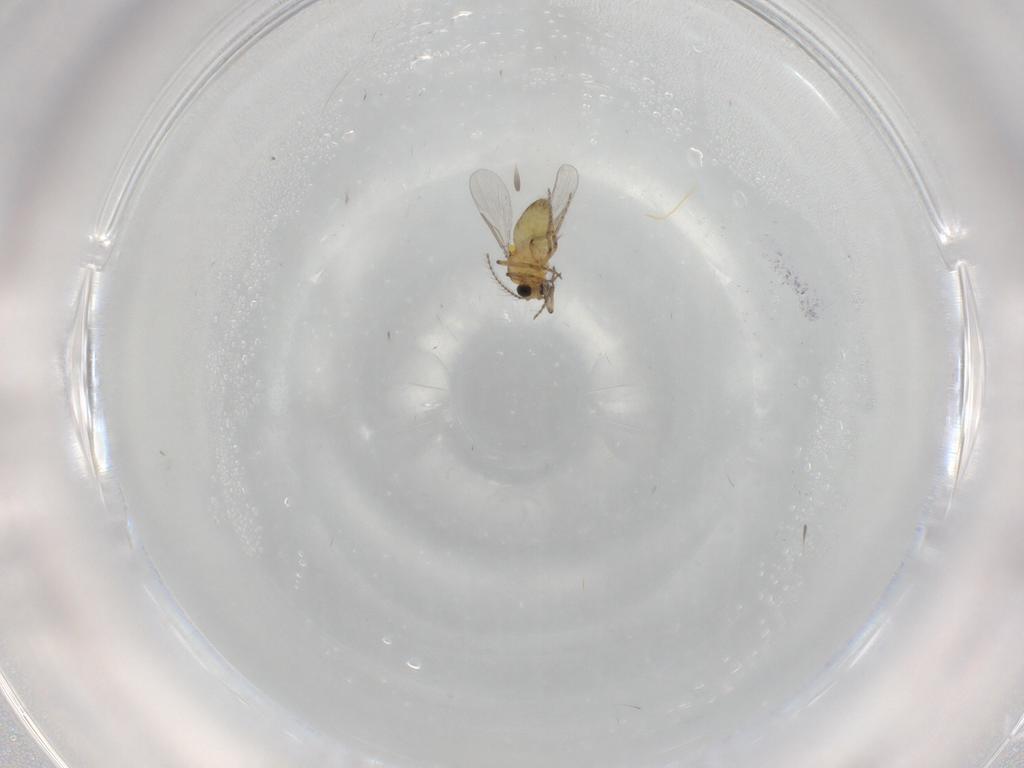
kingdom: Animalia
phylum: Arthropoda
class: Insecta
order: Diptera
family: Ceratopogonidae
